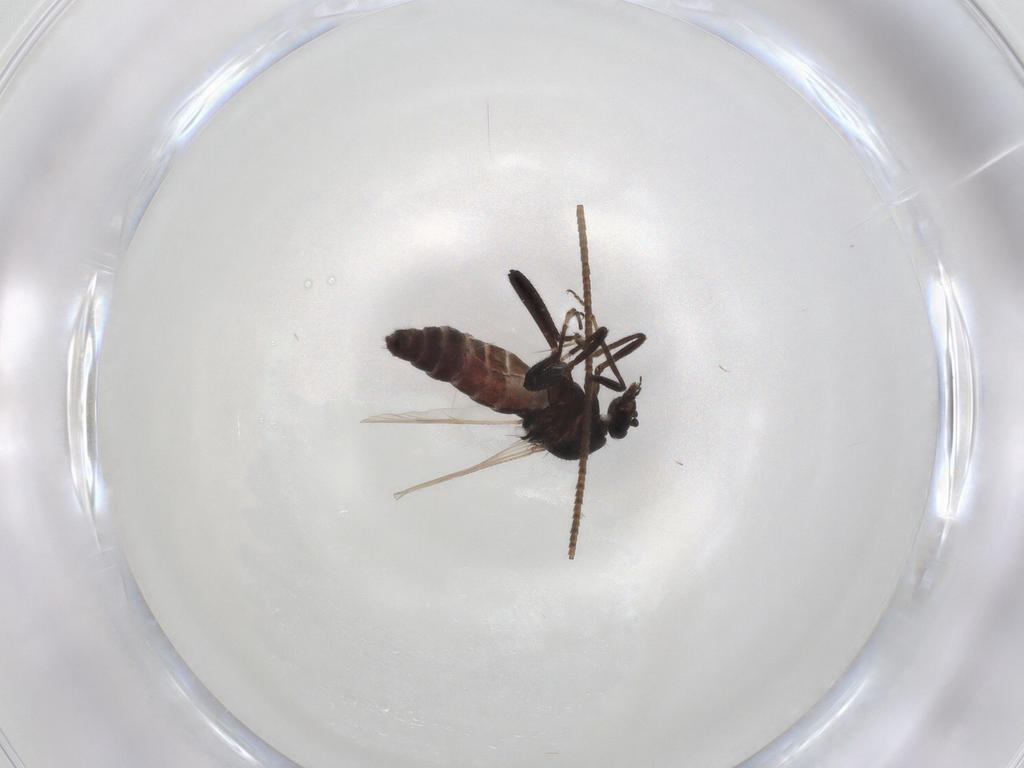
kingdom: Animalia
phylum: Arthropoda
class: Insecta
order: Diptera
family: Ceratopogonidae
